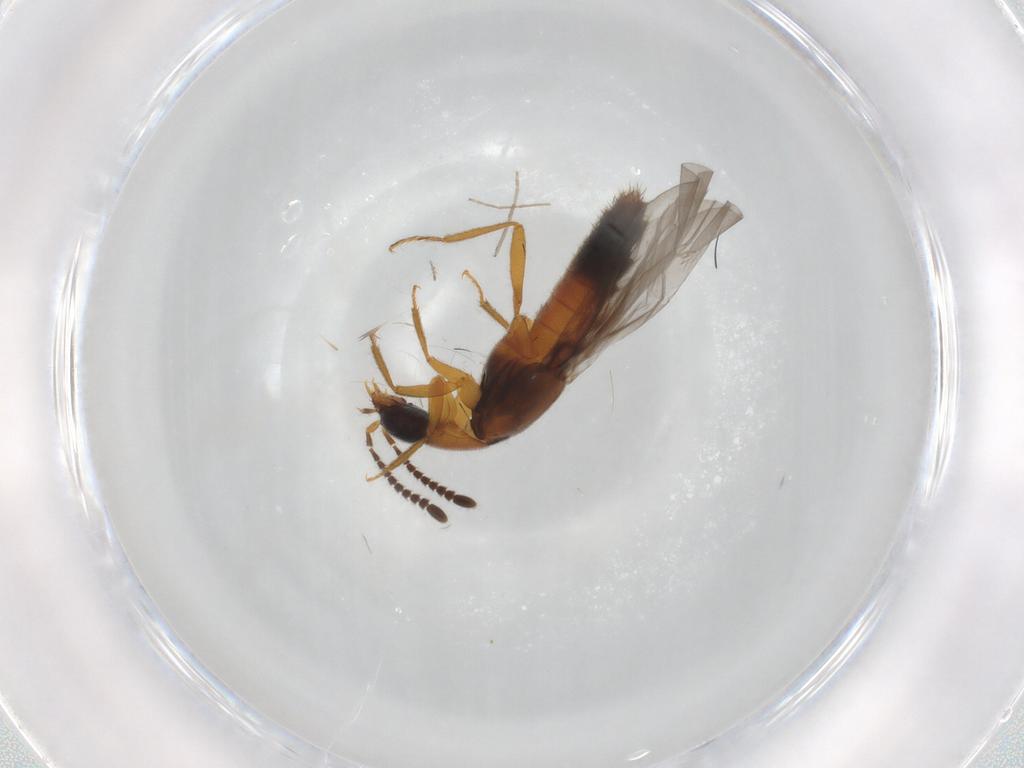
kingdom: Animalia
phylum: Arthropoda
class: Insecta
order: Coleoptera
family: Staphylinidae
